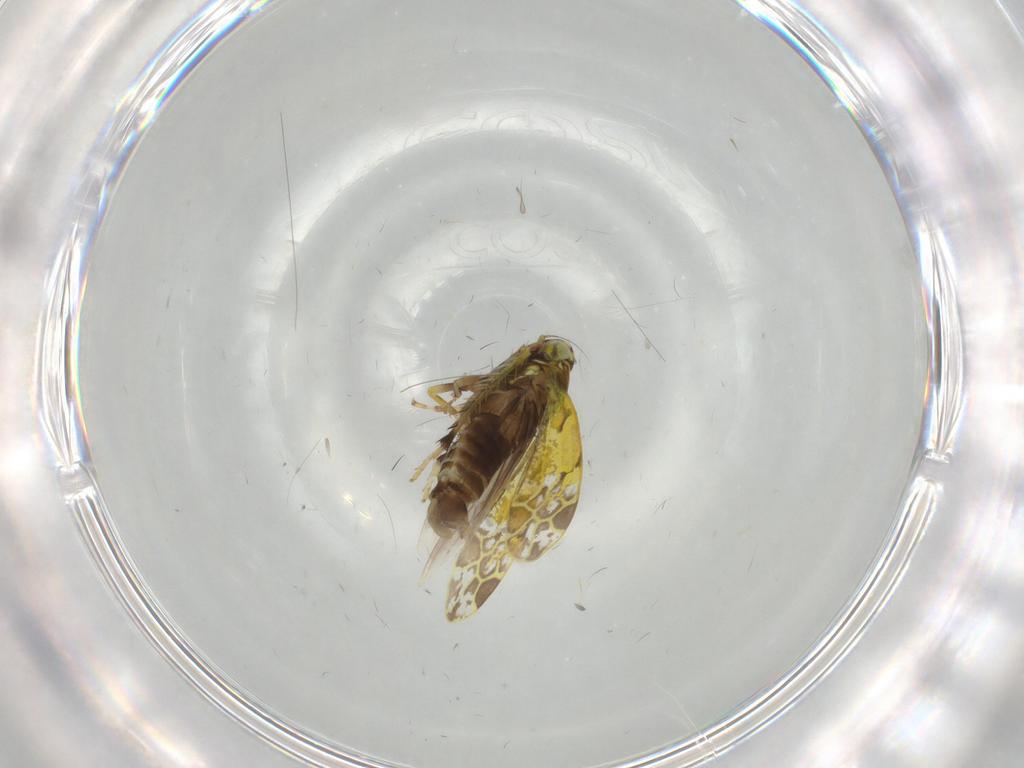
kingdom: Animalia
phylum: Arthropoda
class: Insecta
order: Hemiptera
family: Cicadellidae
